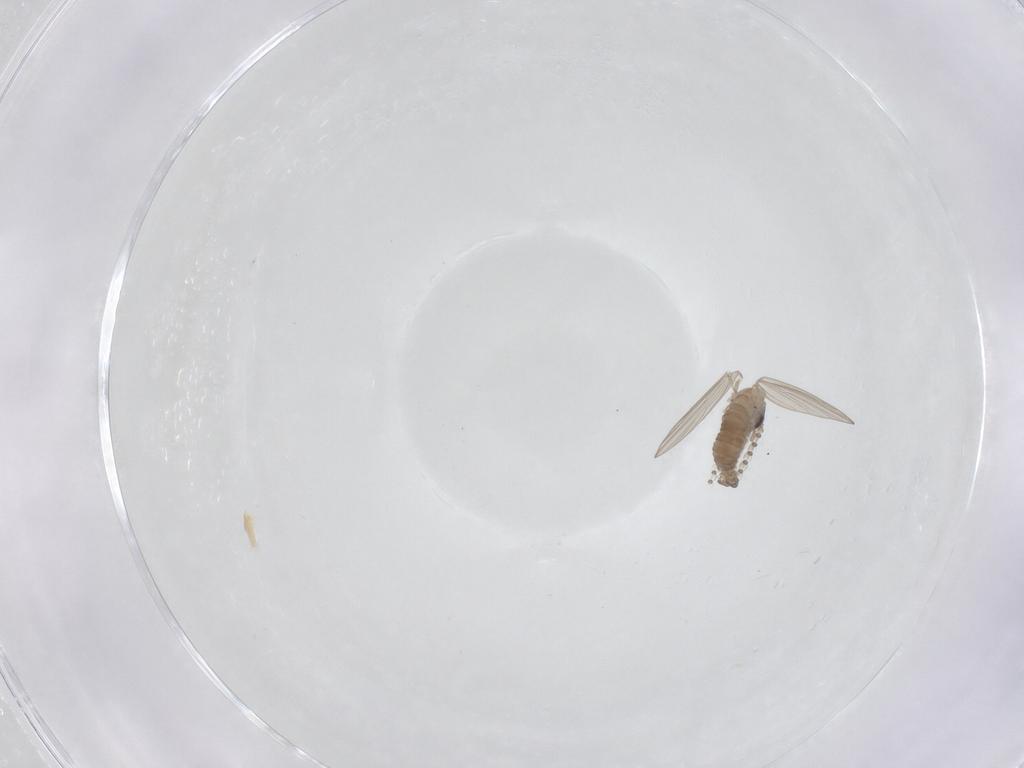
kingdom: Animalia
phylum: Arthropoda
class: Insecta
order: Diptera
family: Psychodidae
